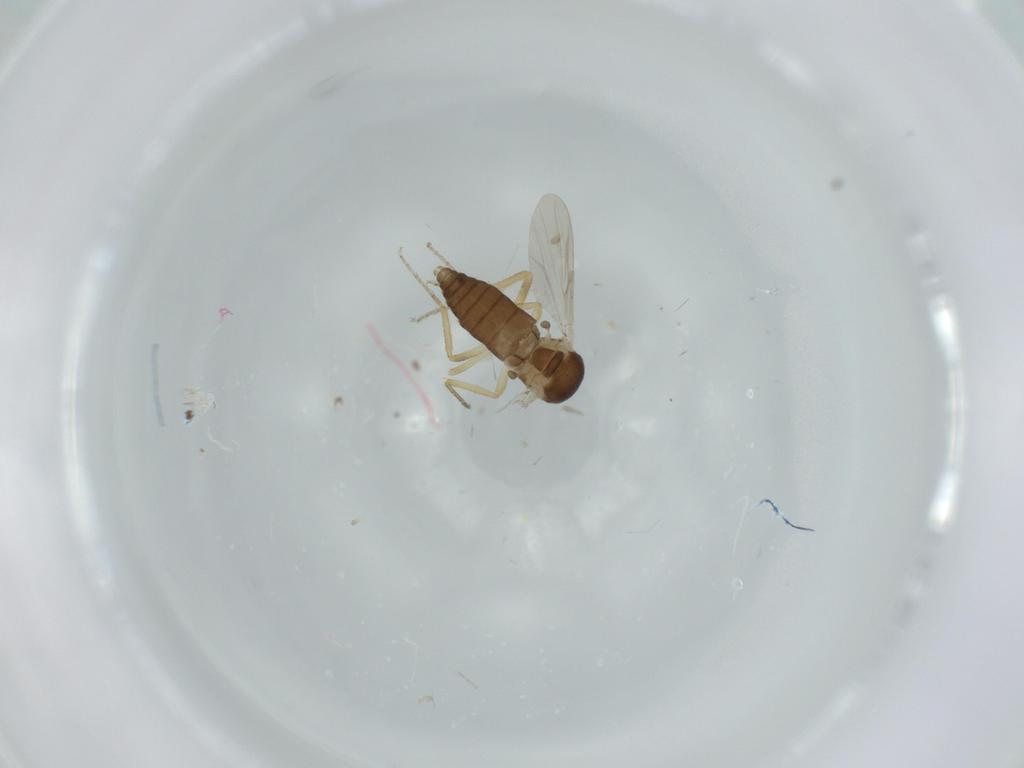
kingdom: Animalia
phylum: Arthropoda
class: Insecta
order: Diptera
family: Ceratopogonidae
